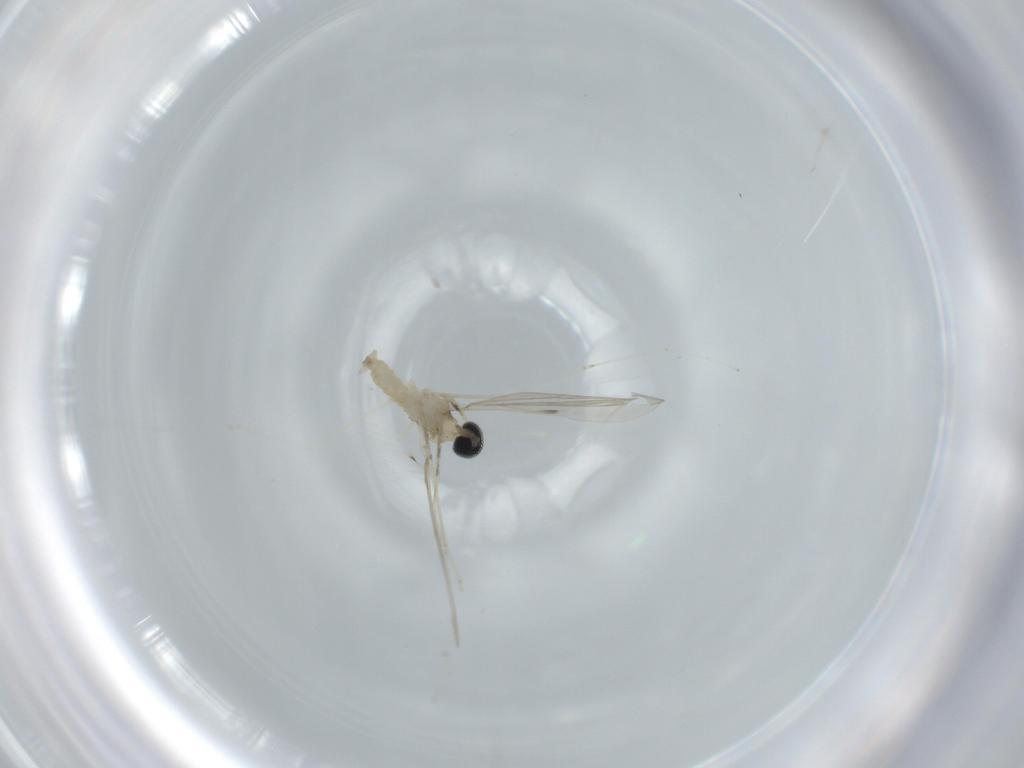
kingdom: Animalia
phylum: Arthropoda
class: Insecta
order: Diptera
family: Cecidomyiidae
